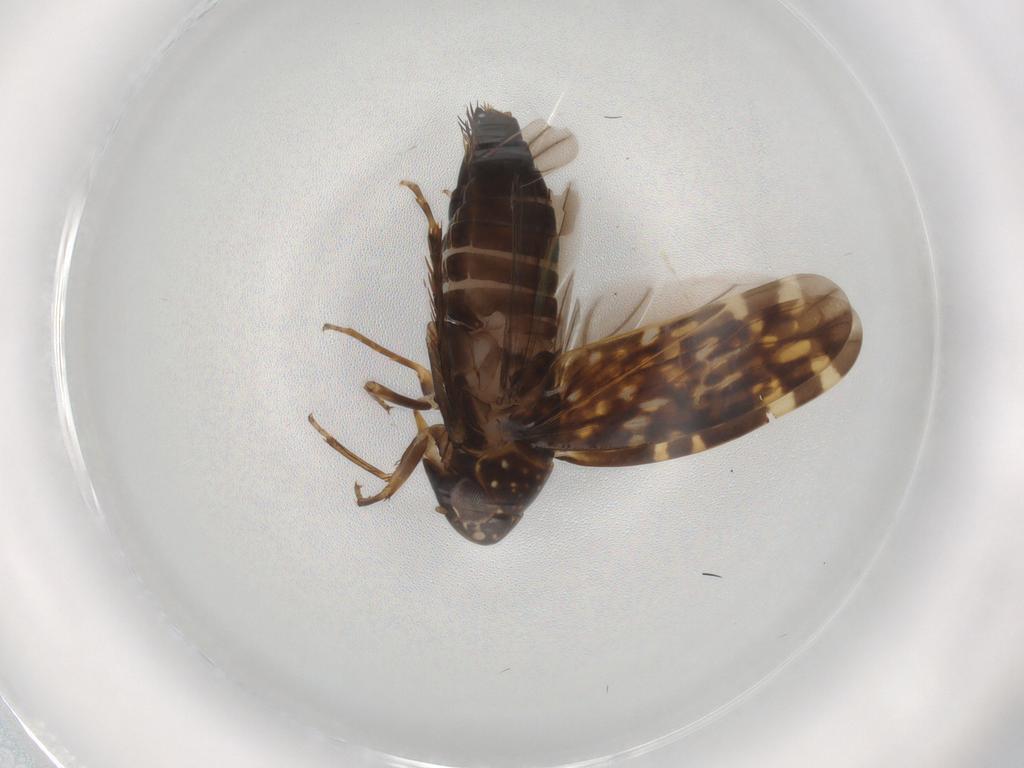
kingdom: Animalia
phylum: Arthropoda
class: Insecta
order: Hemiptera
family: Cicadellidae
